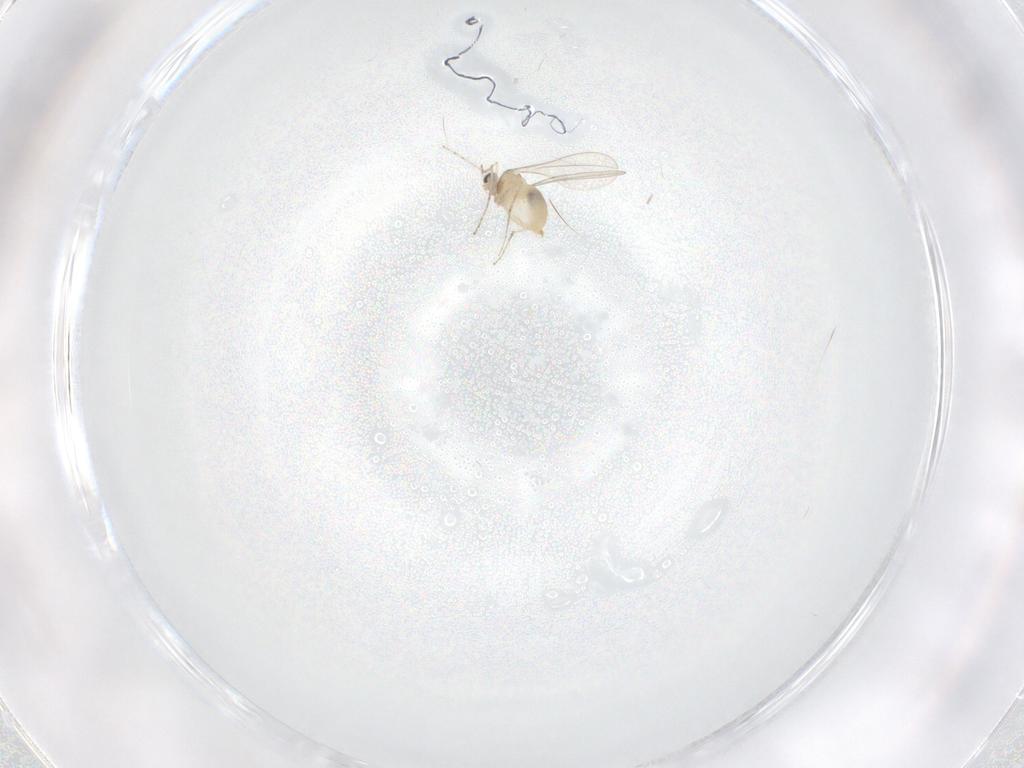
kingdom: Animalia
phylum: Arthropoda
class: Insecta
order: Diptera
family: Cecidomyiidae
